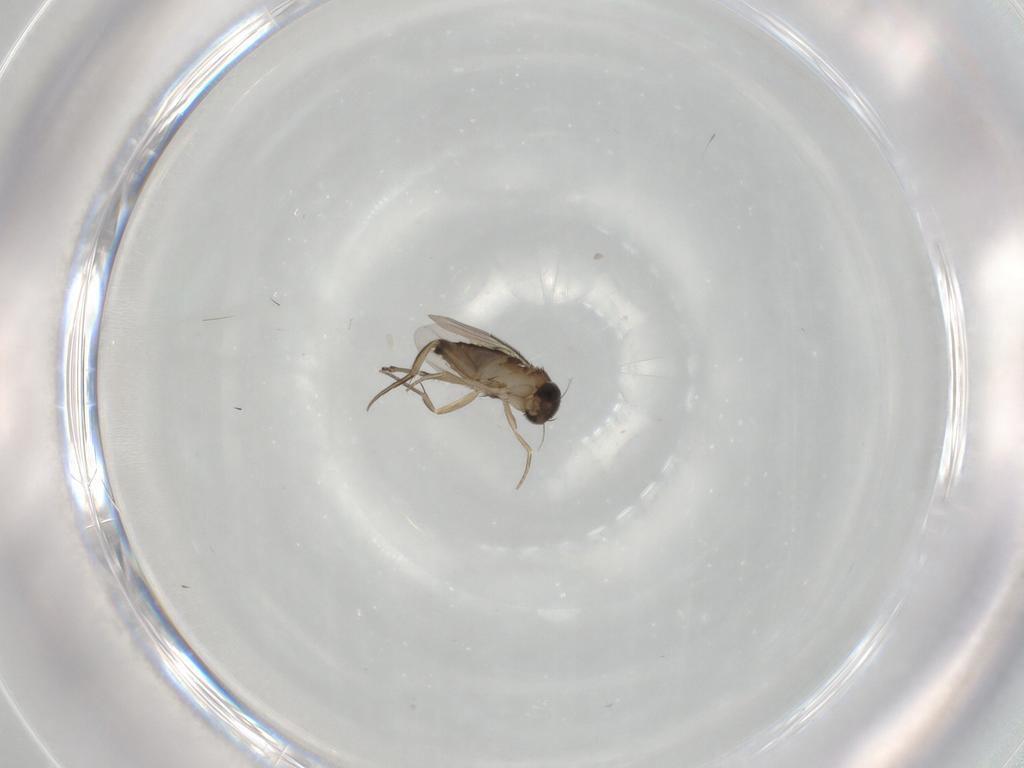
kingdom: Animalia
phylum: Arthropoda
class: Insecta
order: Diptera
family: Phoridae
